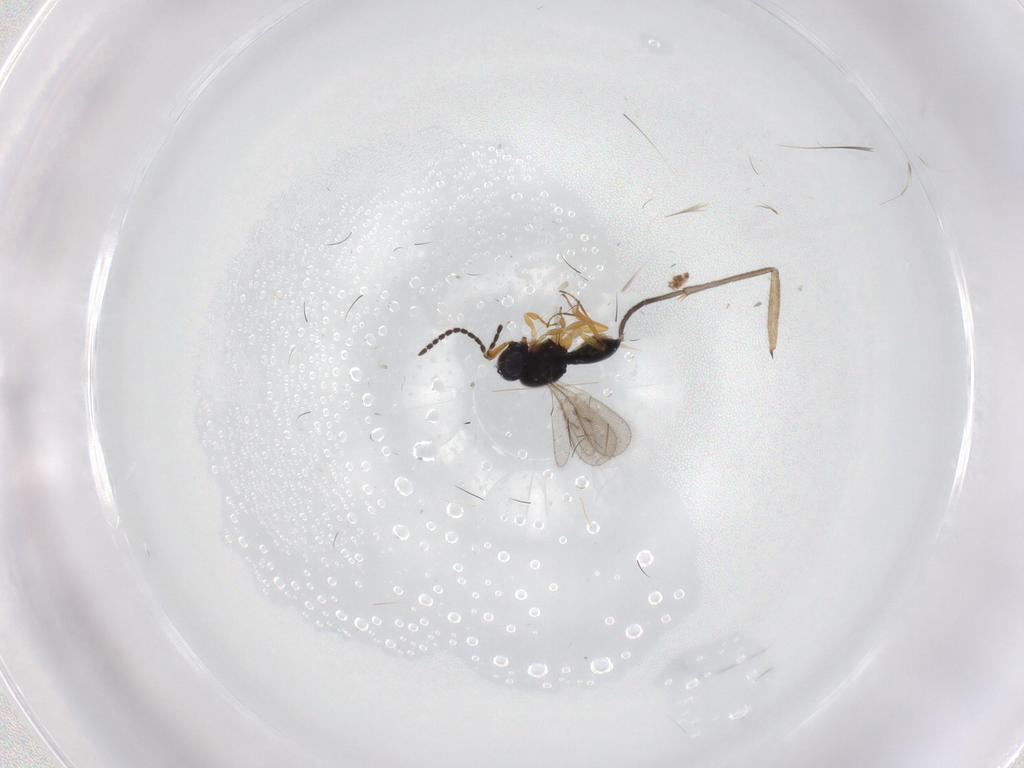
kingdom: Animalia
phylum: Arthropoda
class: Insecta
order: Hymenoptera
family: Scelionidae
